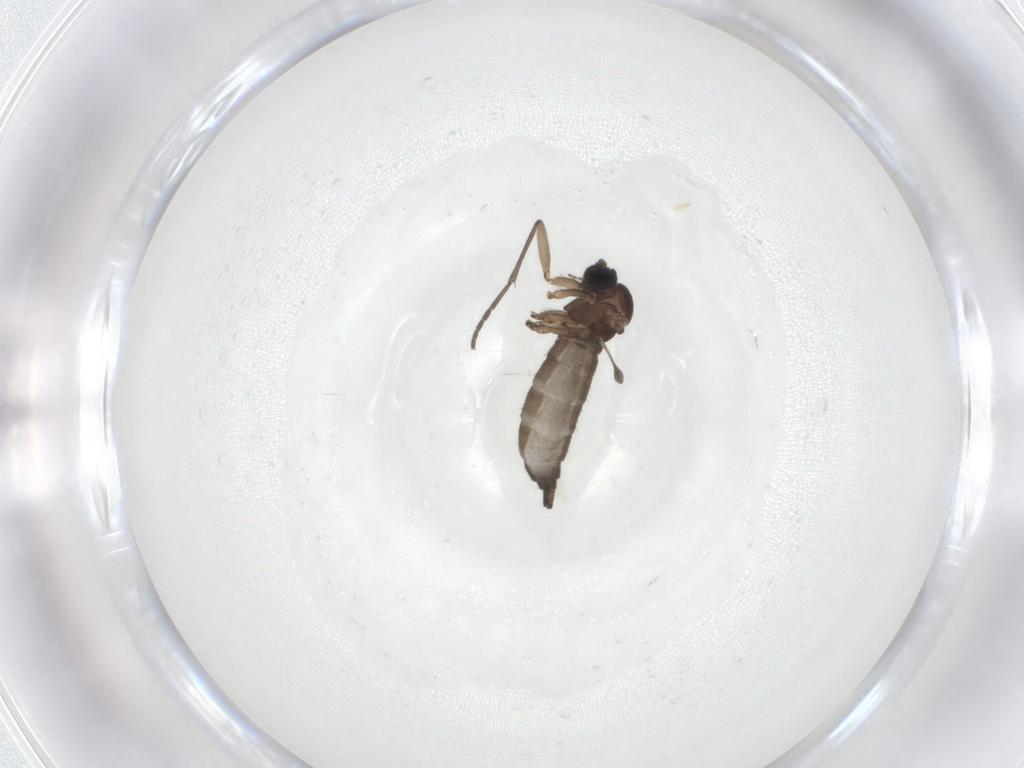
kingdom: Animalia
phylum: Arthropoda
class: Insecta
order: Diptera
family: Sciaridae
